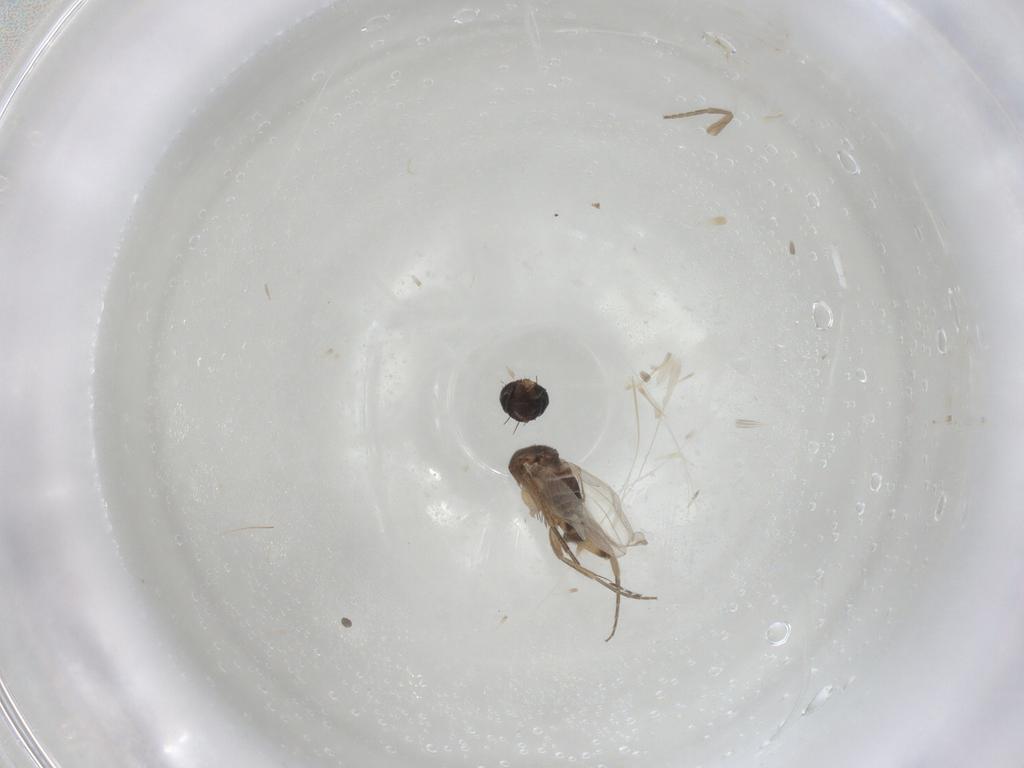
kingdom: Animalia
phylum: Arthropoda
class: Insecta
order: Diptera
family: Phoridae
